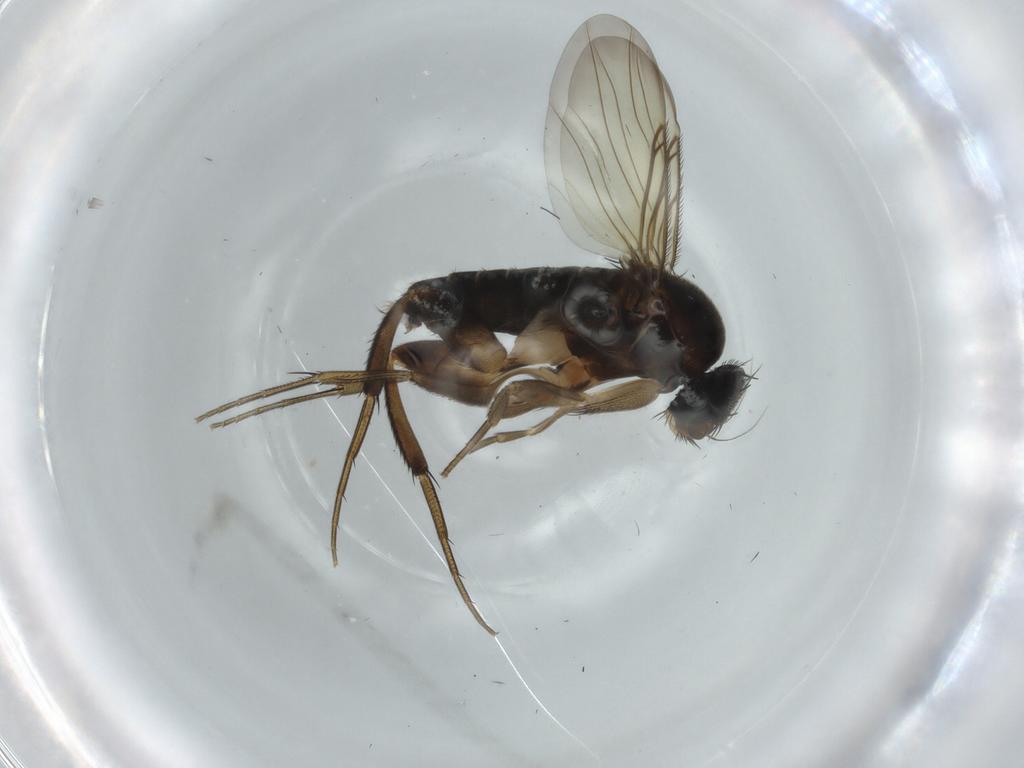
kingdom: Animalia
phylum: Arthropoda
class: Insecta
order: Diptera
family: Phoridae
